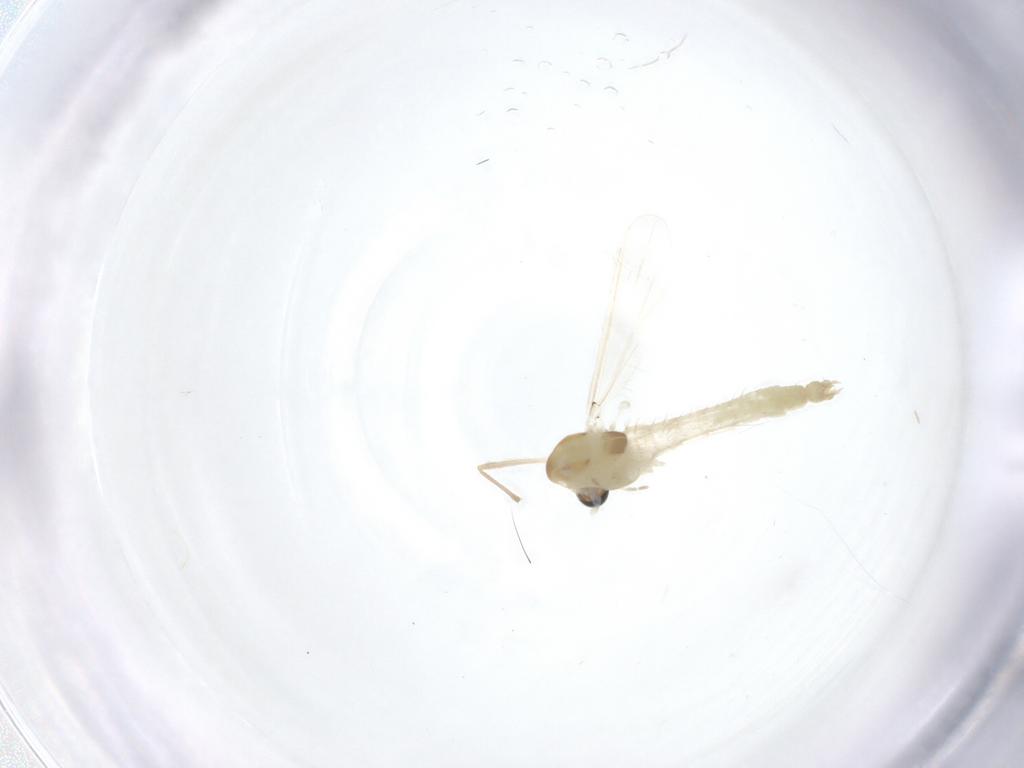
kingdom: Animalia
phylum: Arthropoda
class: Insecta
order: Diptera
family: Chironomidae
